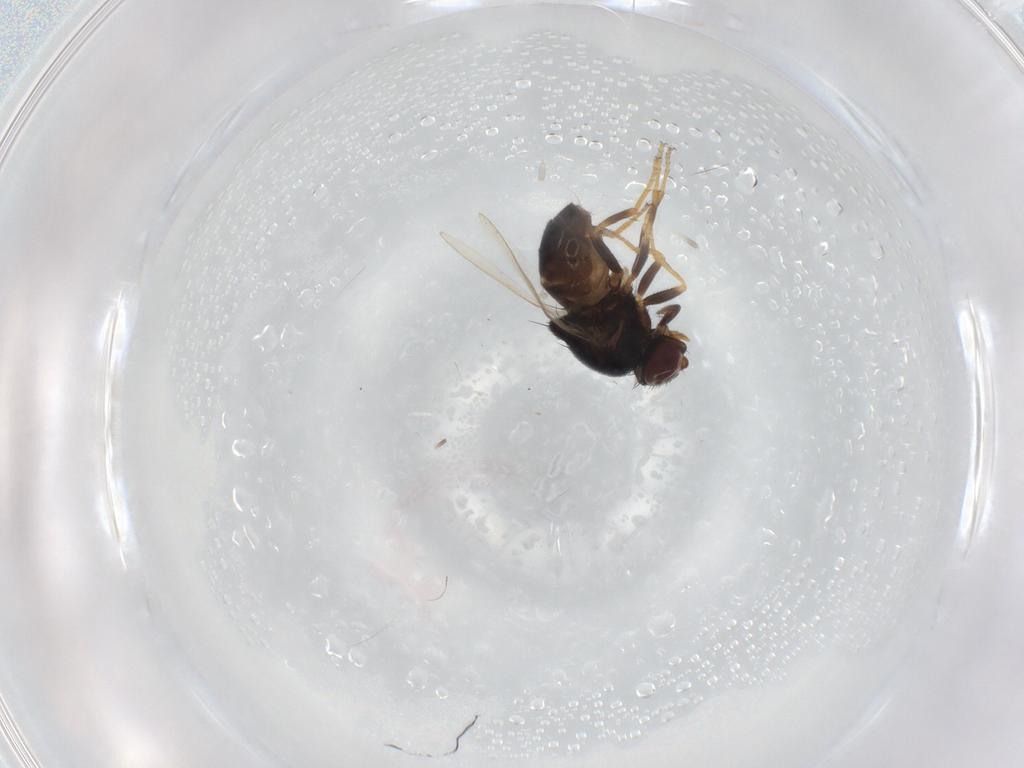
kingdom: Animalia
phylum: Arthropoda
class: Insecta
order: Diptera
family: Chloropidae
